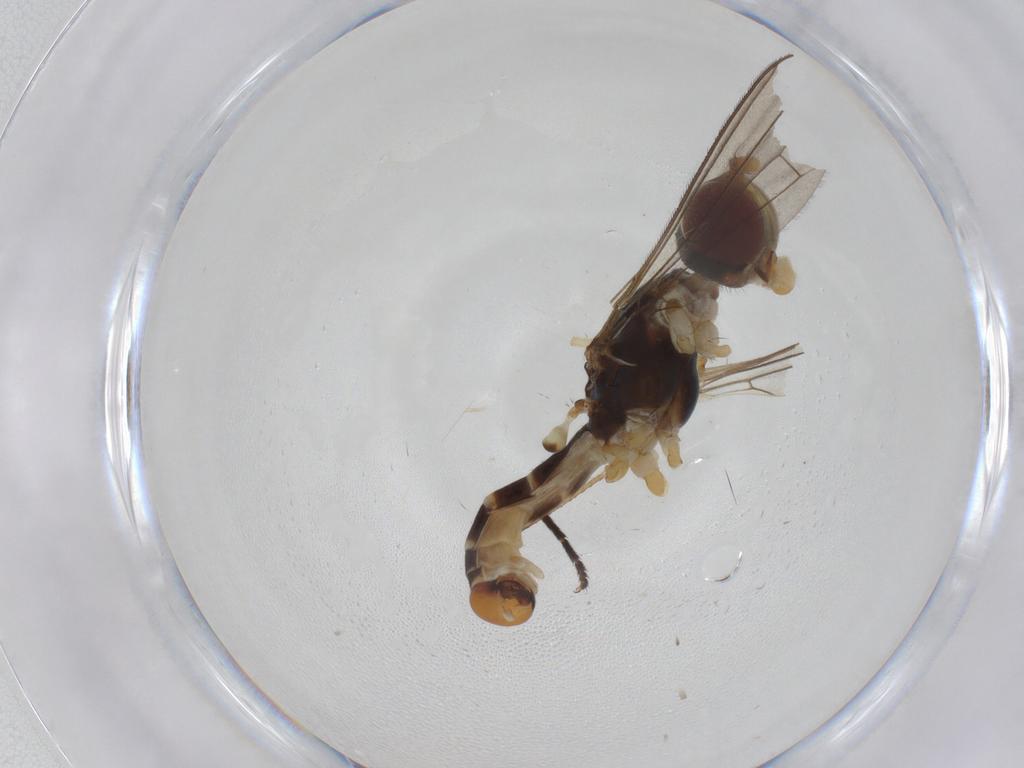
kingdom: Animalia
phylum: Arthropoda
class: Insecta
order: Diptera
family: Micropezidae
